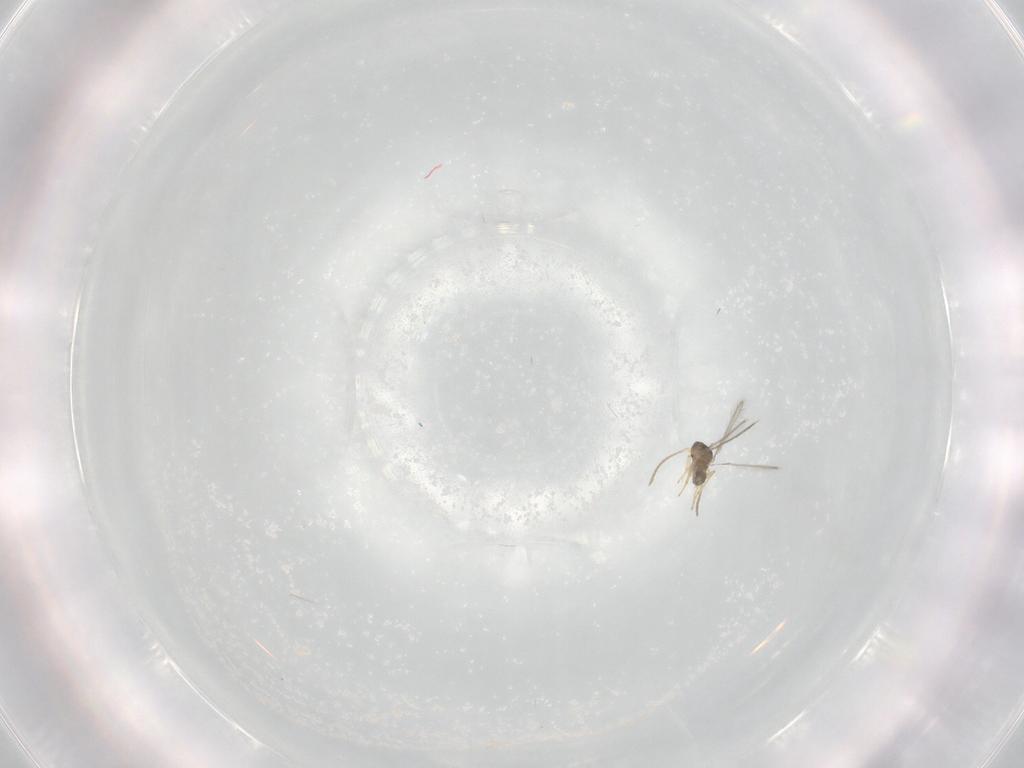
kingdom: Animalia
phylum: Arthropoda
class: Insecta
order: Hymenoptera
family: Mymaridae
